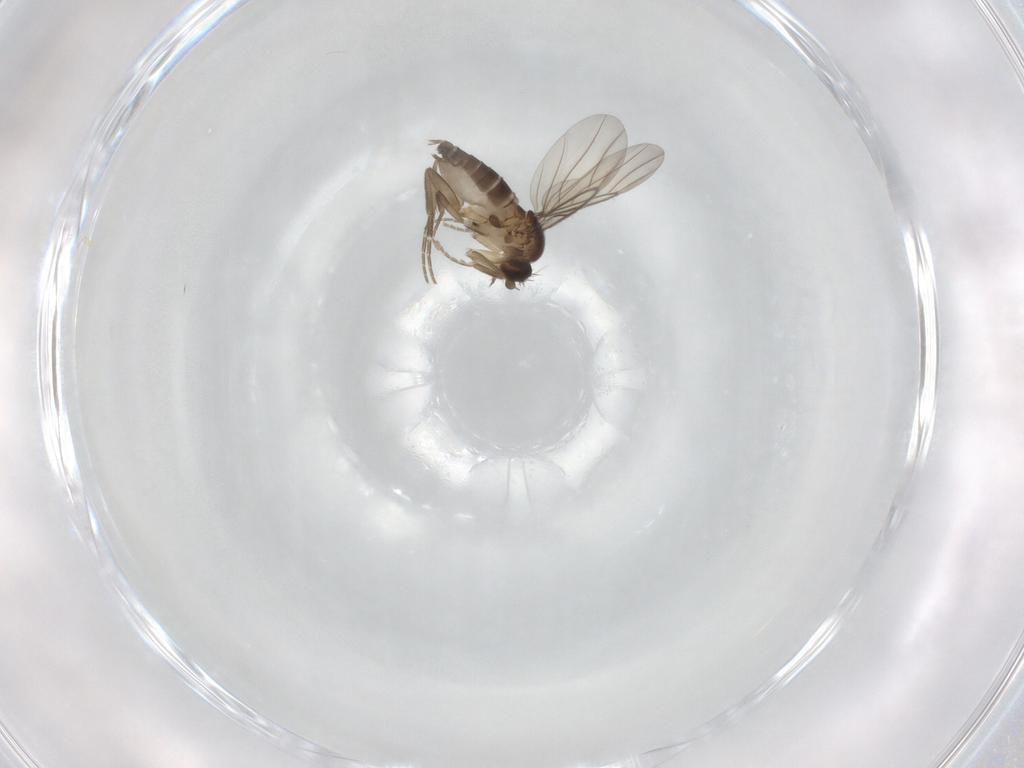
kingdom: Animalia
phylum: Arthropoda
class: Insecta
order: Diptera
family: Phoridae
